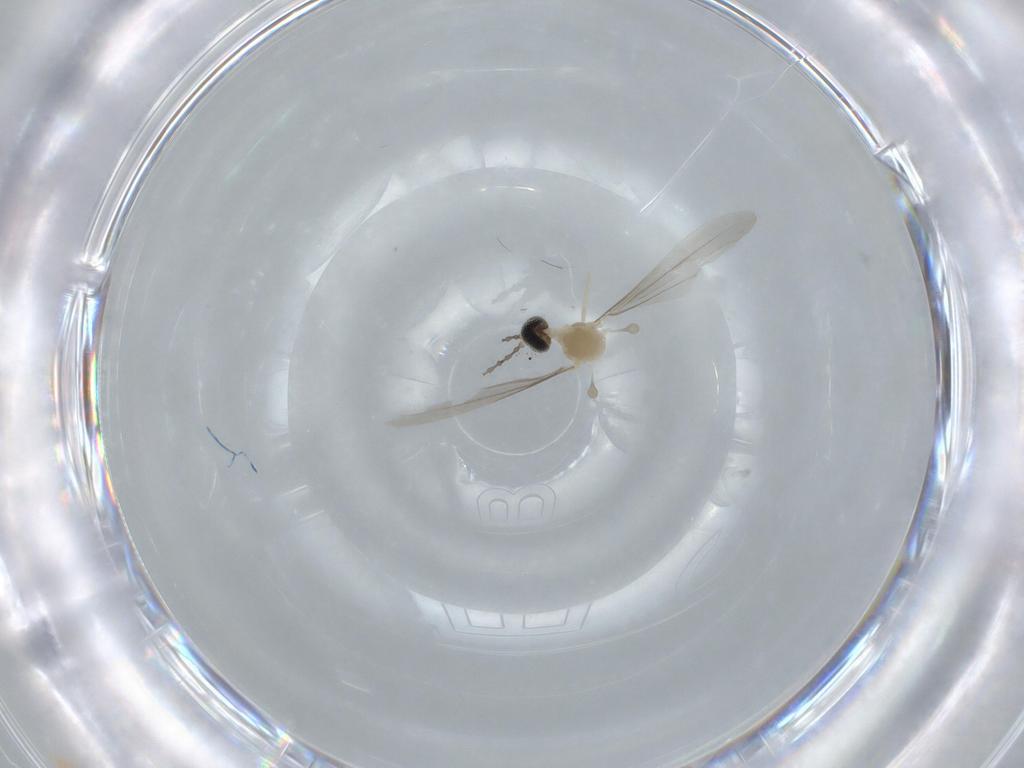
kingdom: Animalia
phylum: Arthropoda
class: Insecta
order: Diptera
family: Cecidomyiidae
